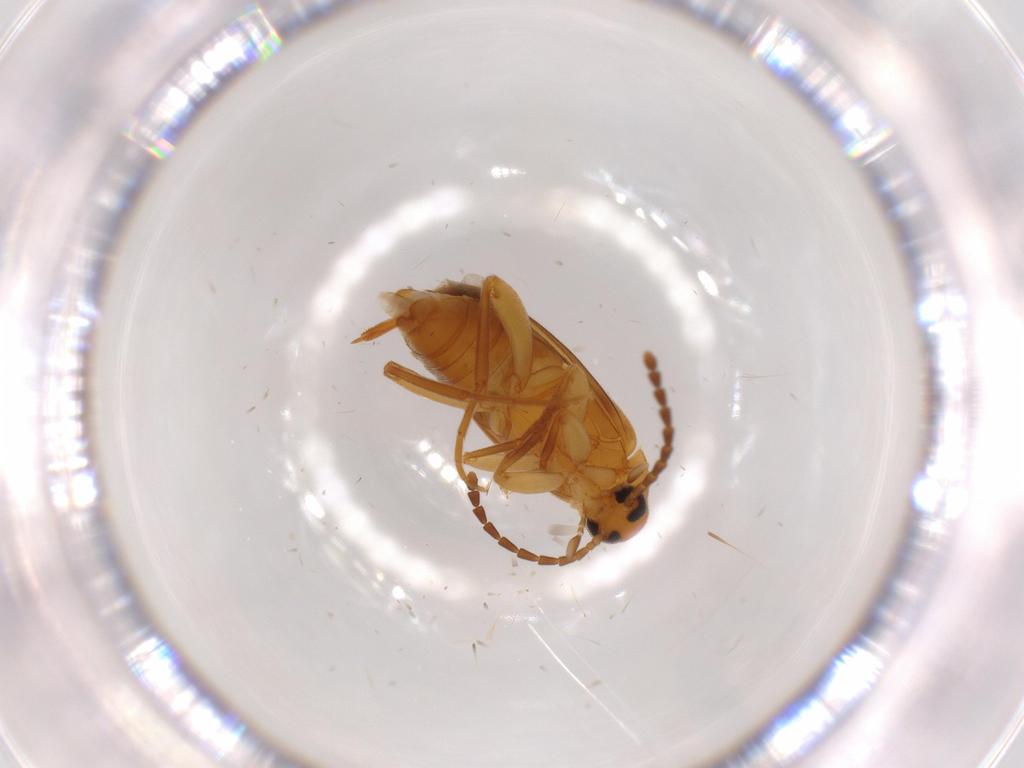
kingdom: Animalia
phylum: Arthropoda
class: Insecta
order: Coleoptera
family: Scraptiidae
